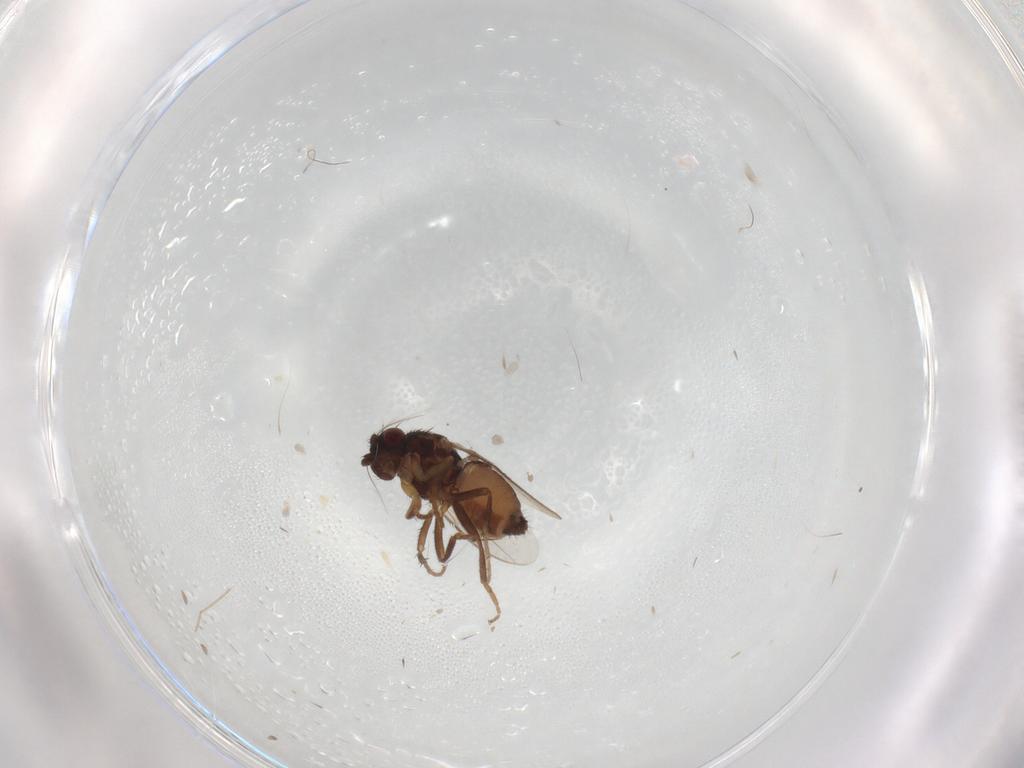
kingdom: Animalia
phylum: Arthropoda
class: Insecta
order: Diptera
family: Sphaeroceridae
